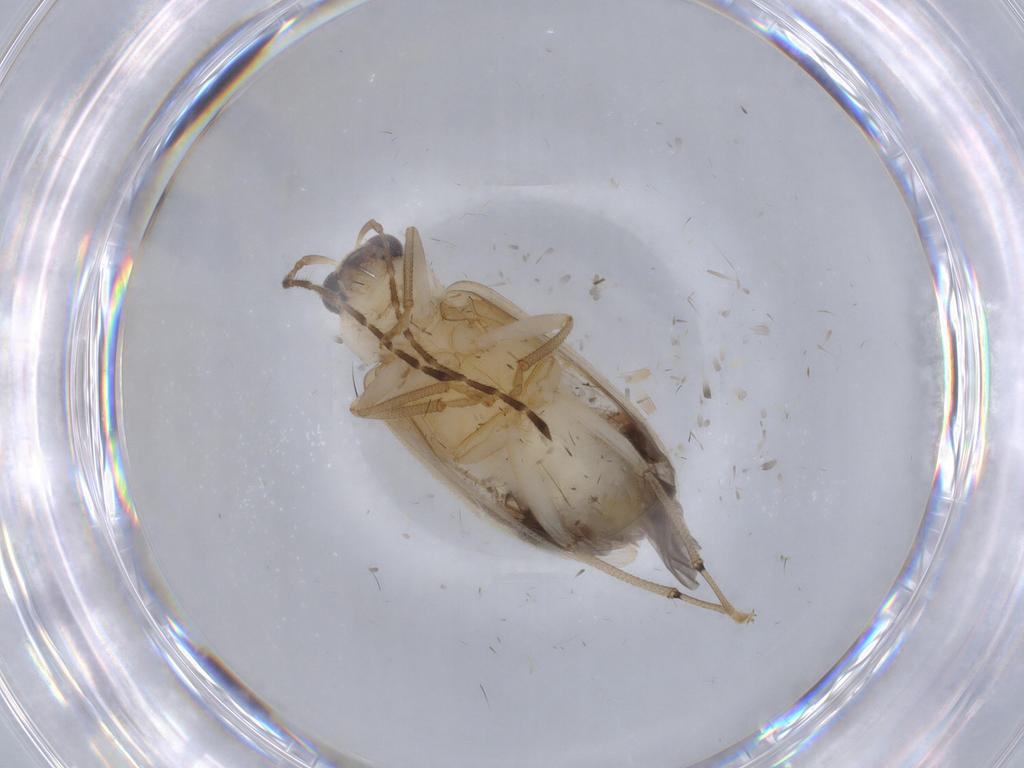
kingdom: Animalia
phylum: Arthropoda
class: Insecta
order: Coleoptera
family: Chrysomelidae
